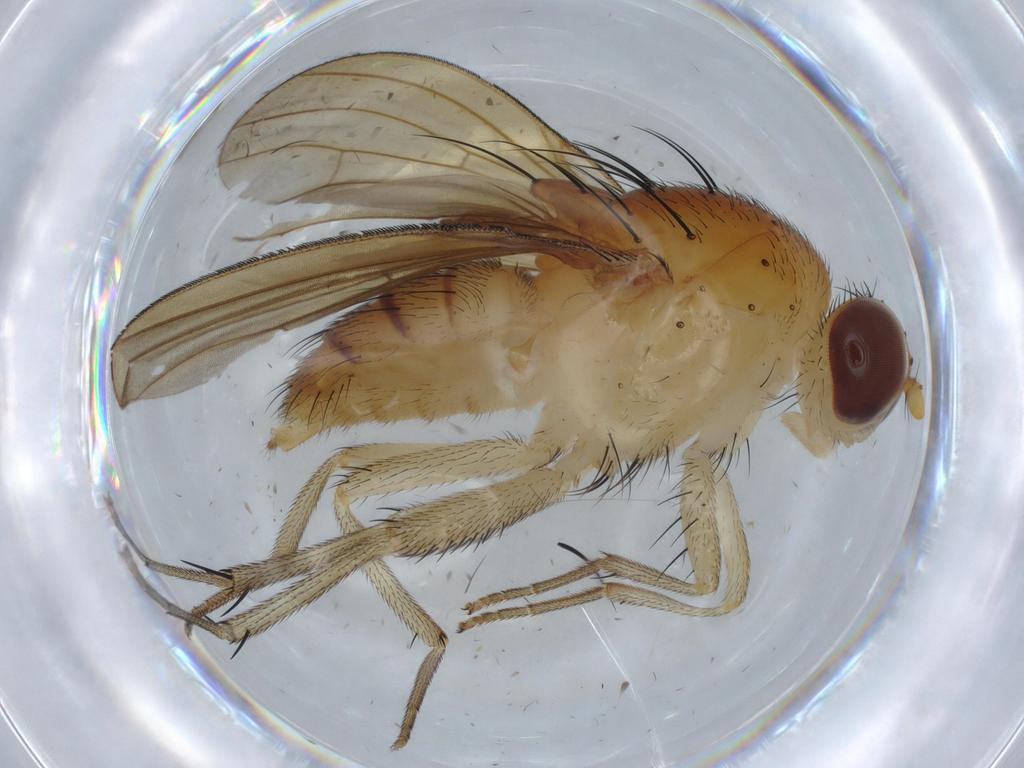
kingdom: Animalia
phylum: Arthropoda
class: Insecta
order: Diptera
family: Cecidomyiidae
